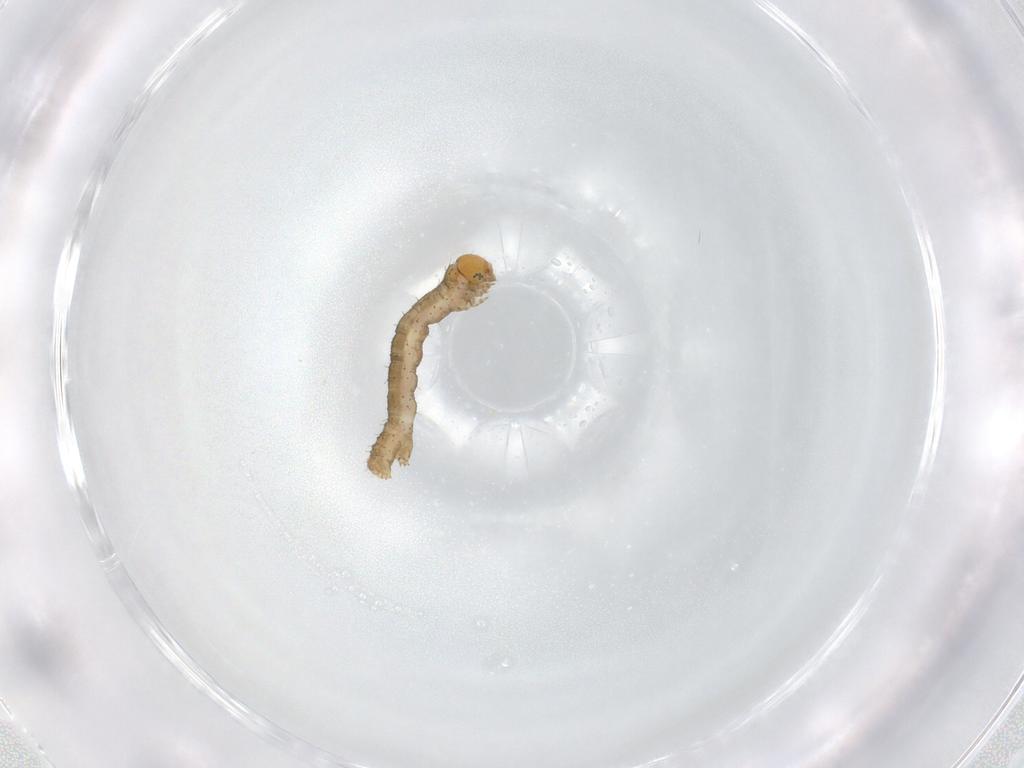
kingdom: Animalia
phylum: Arthropoda
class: Insecta
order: Lepidoptera
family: Geometridae
